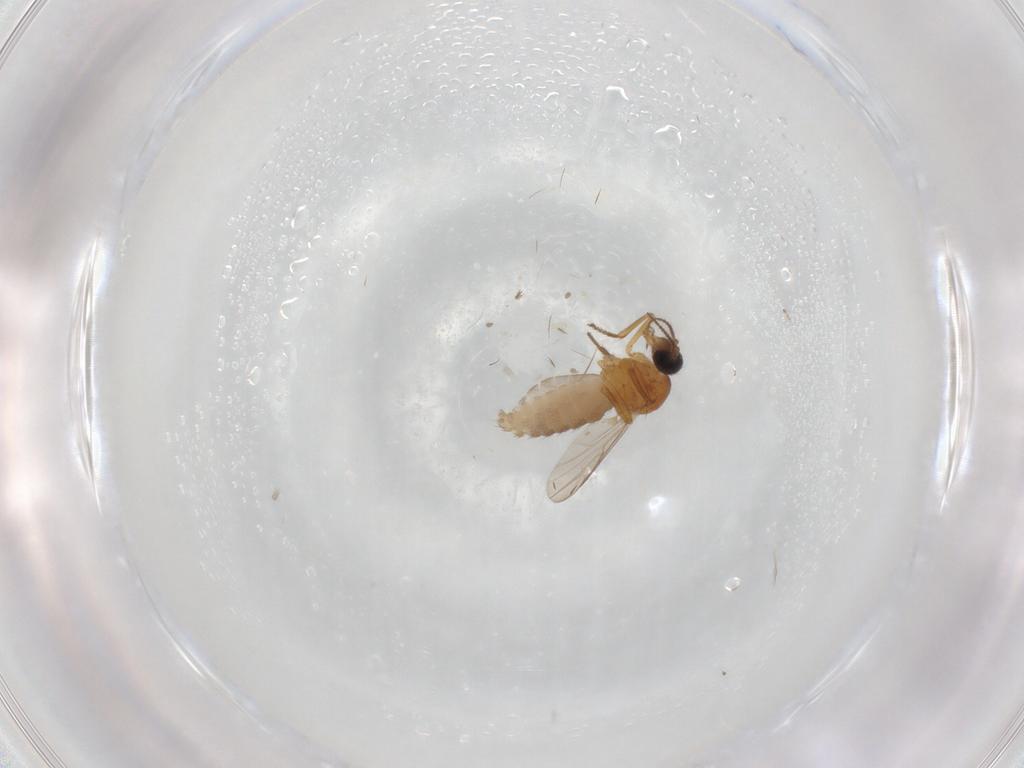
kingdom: Animalia
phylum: Arthropoda
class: Insecta
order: Diptera
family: Ceratopogonidae
